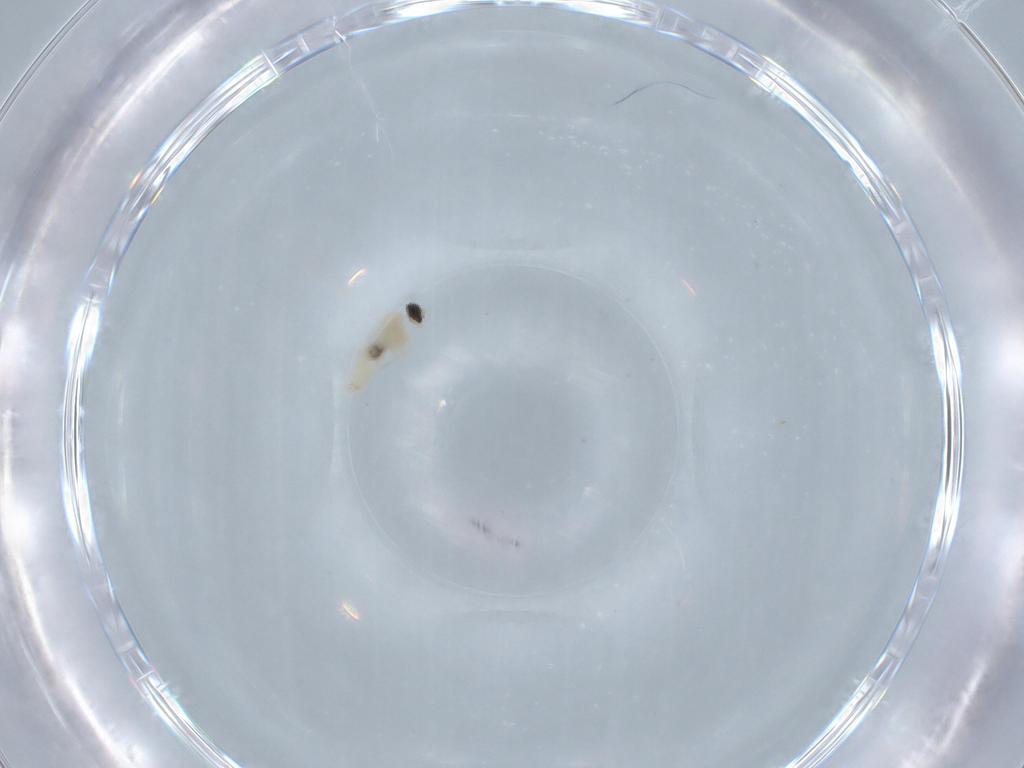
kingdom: Animalia
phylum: Arthropoda
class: Insecta
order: Diptera
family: Cecidomyiidae
